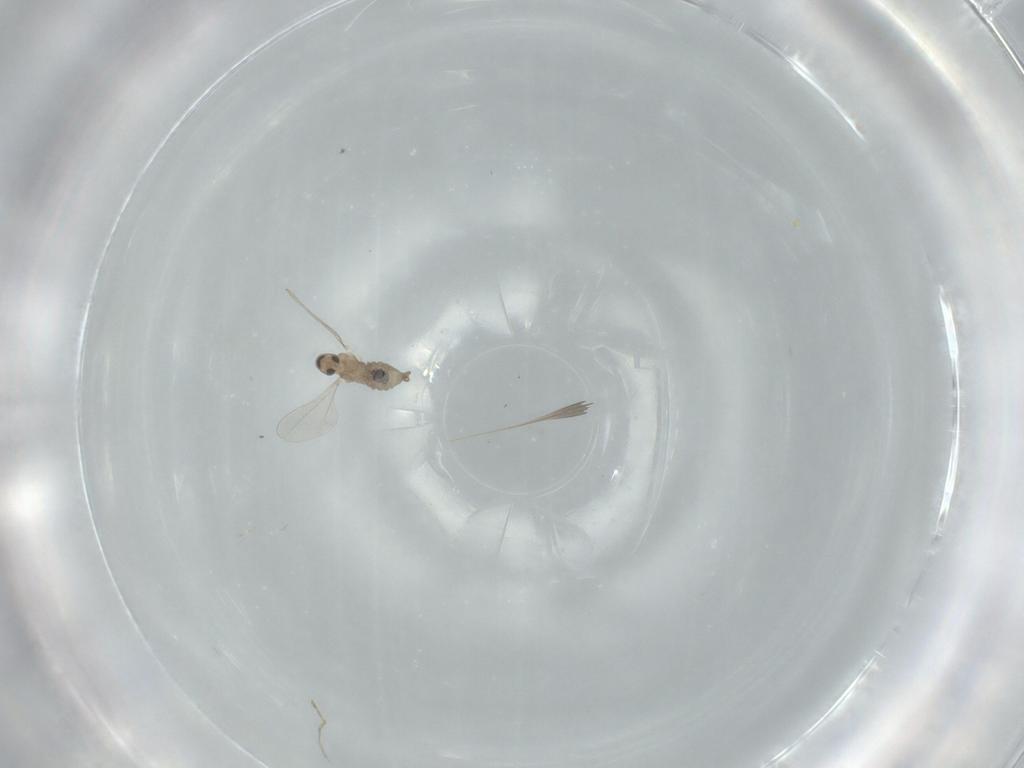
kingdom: Animalia
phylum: Arthropoda
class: Insecta
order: Diptera
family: Cecidomyiidae
